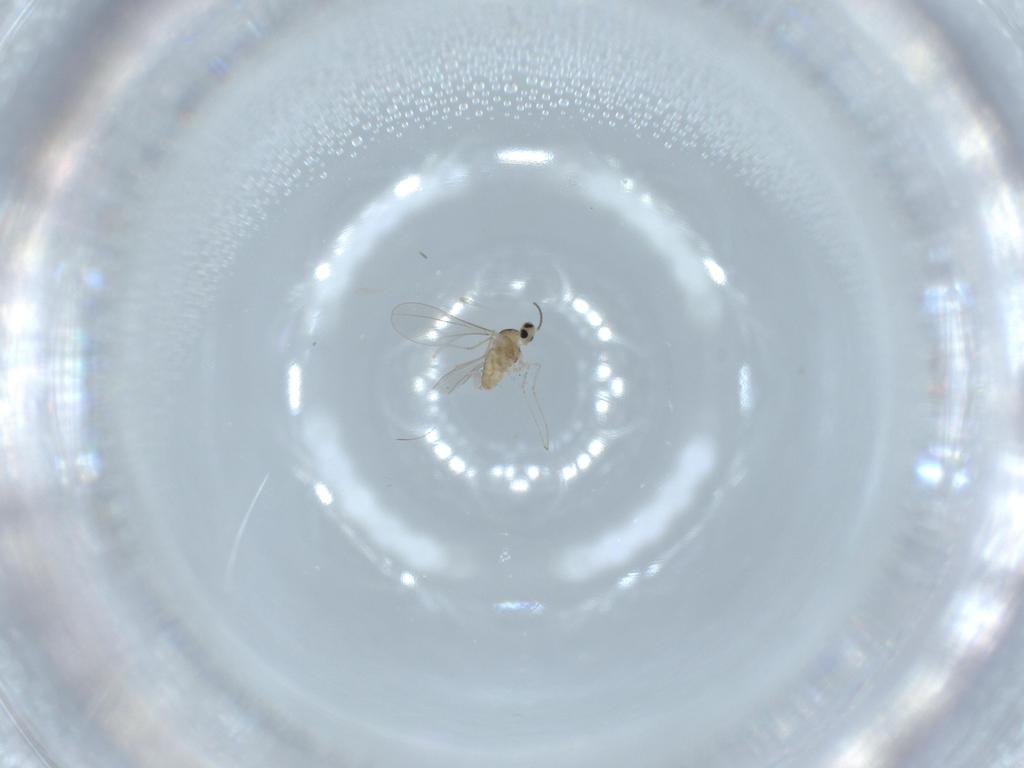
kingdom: Animalia
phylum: Arthropoda
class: Insecta
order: Diptera
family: Cecidomyiidae
